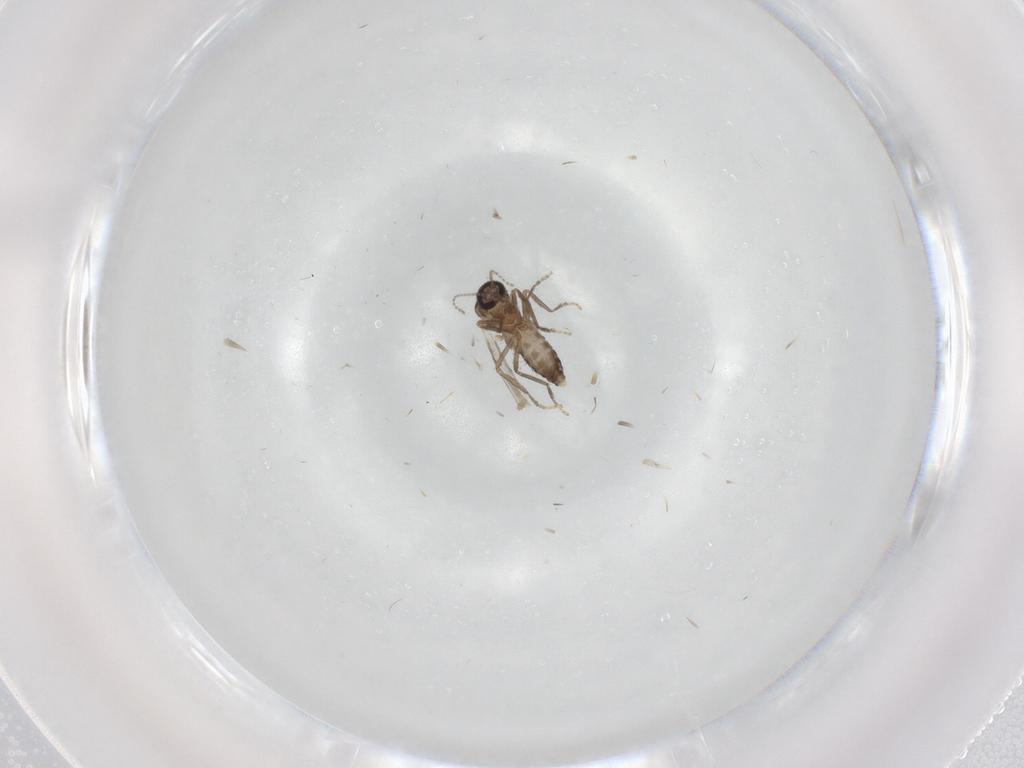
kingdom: Animalia
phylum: Arthropoda
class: Insecta
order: Diptera
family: Ceratopogonidae
